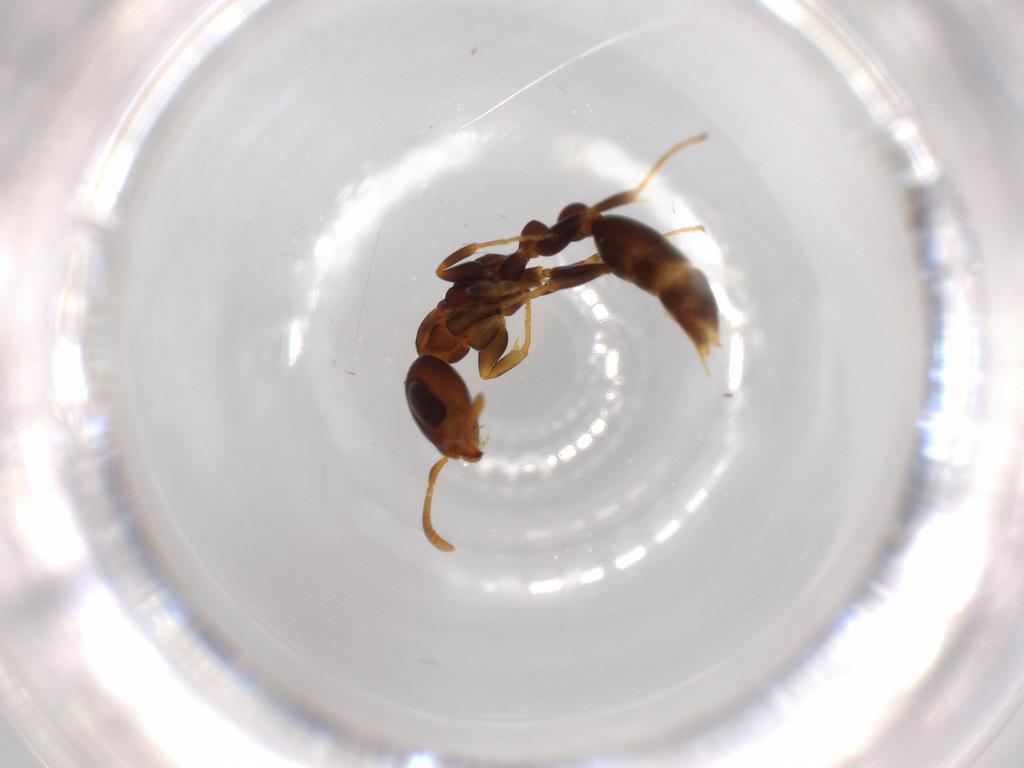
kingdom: Animalia
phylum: Arthropoda
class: Insecta
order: Hymenoptera
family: Formicidae
